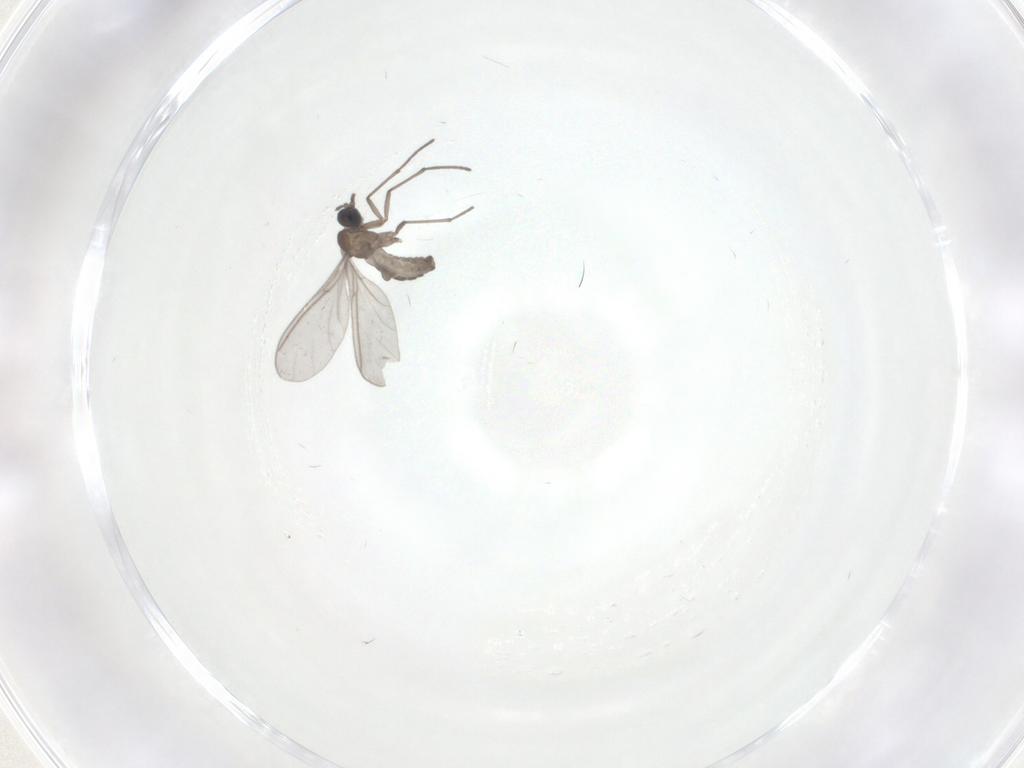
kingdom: Animalia
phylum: Arthropoda
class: Insecta
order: Diptera
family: Sciaridae
